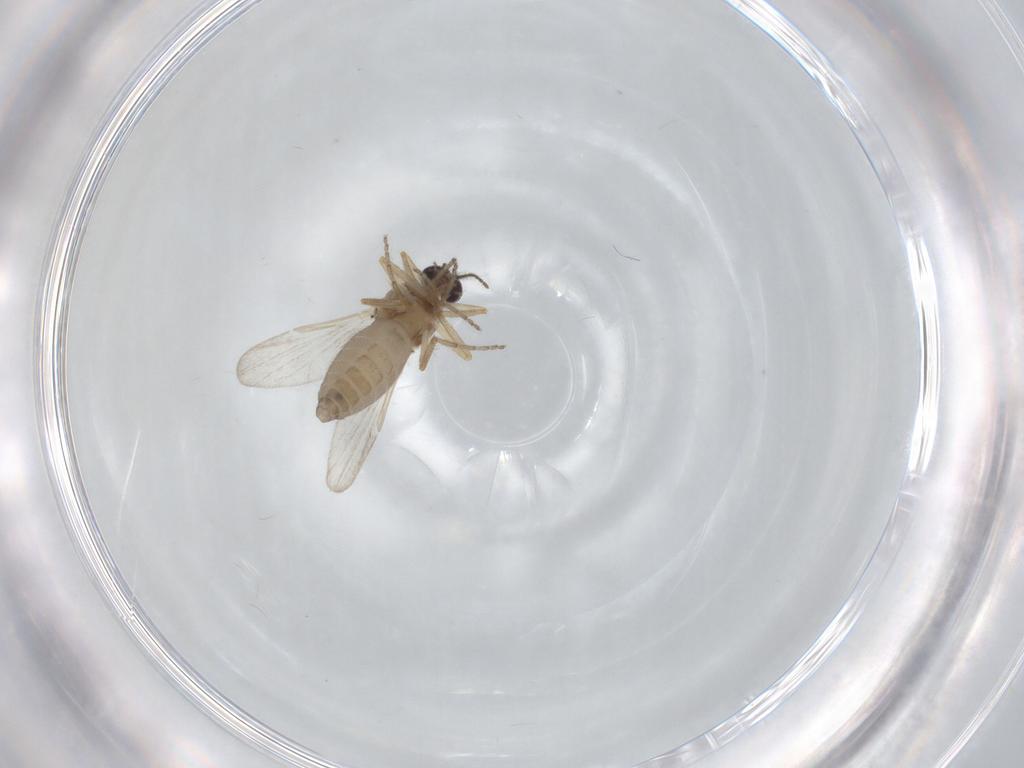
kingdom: Animalia
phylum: Arthropoda
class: Insecta
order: Diptera
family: Ceratopogonidae
